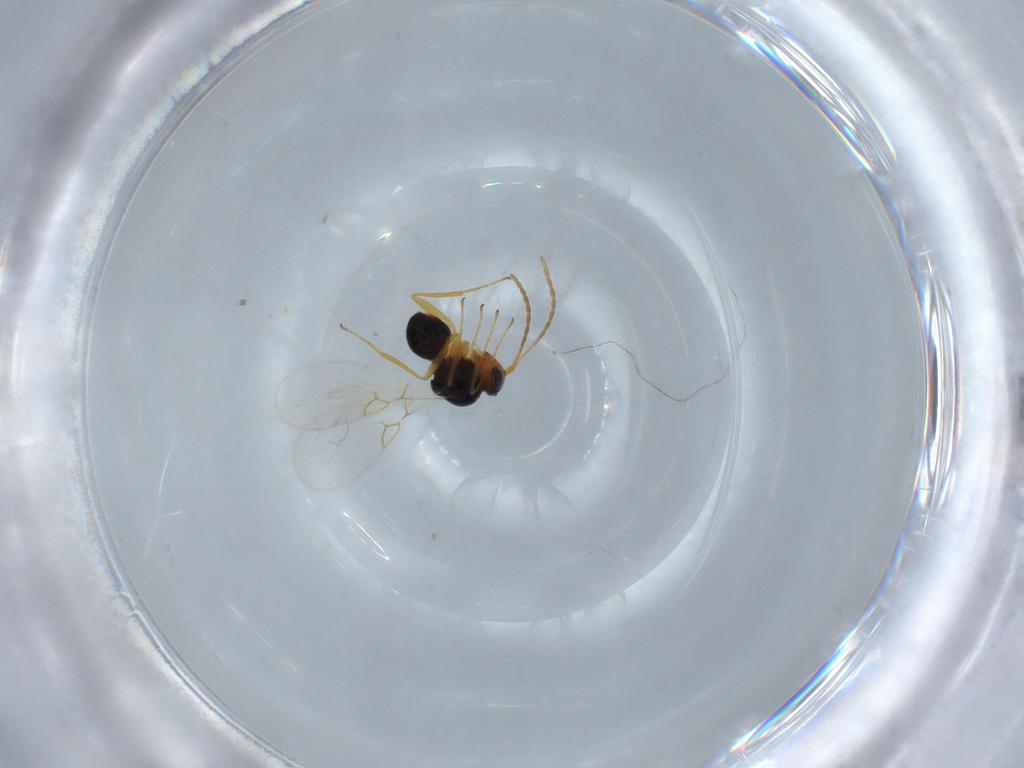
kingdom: Animalia
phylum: Arthropoda
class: Insecta
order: Hymenoptera
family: Figitidae
